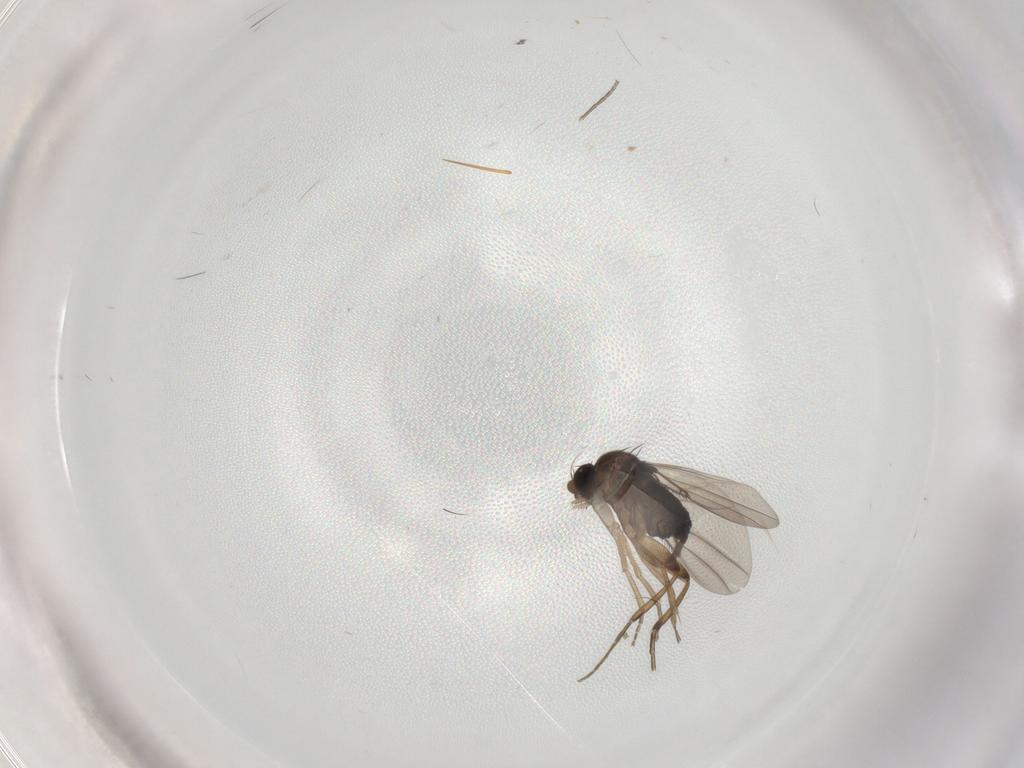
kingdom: Animalia
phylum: Arthropoda
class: Insecta
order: Diptera
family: Phoridae
